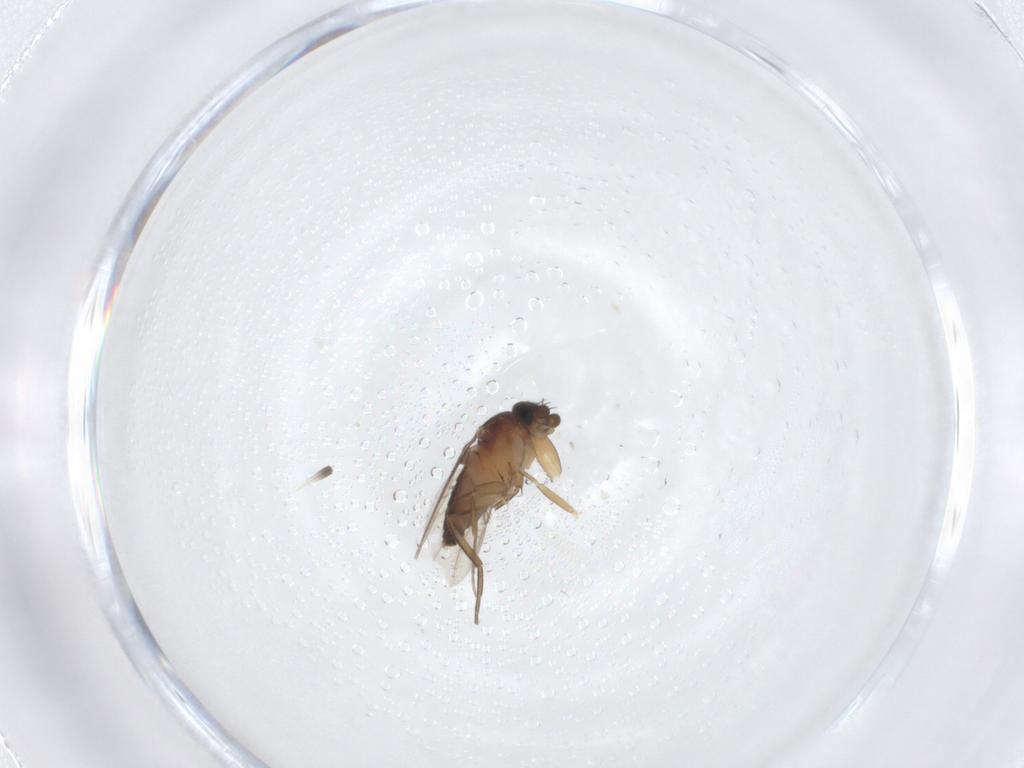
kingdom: Animalia
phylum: Arthropoda
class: Insecta
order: Diptera
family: Phoridae
